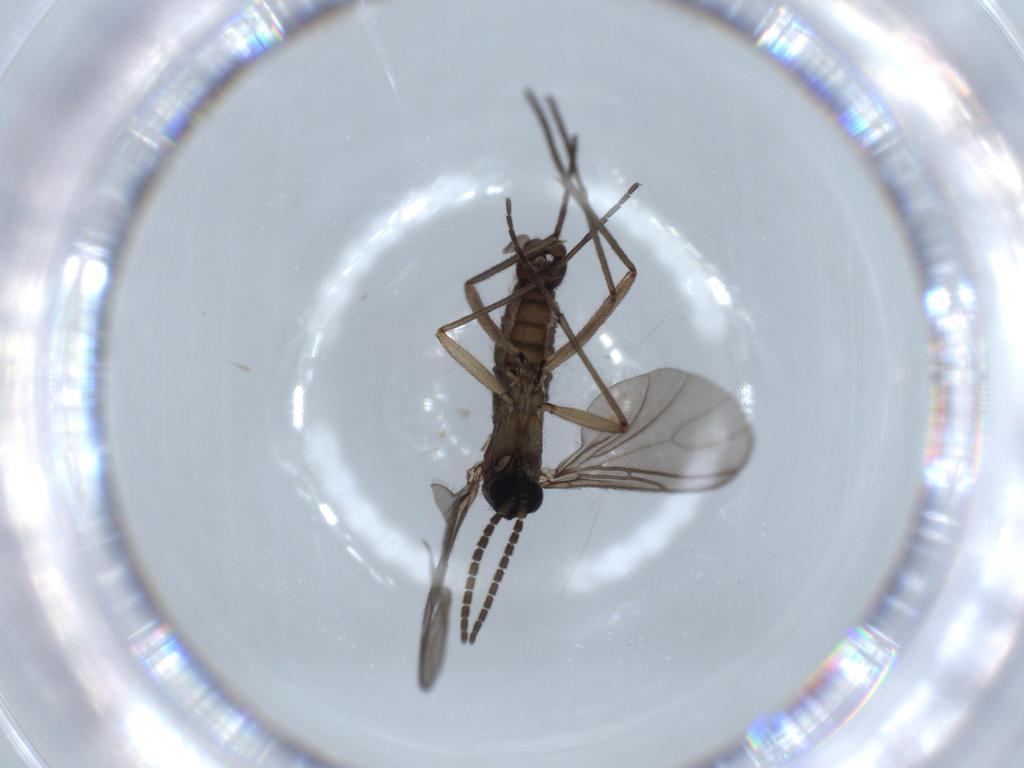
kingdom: Animalia
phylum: Arthropoda
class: Insecta
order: Diptera
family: Sciaridae
